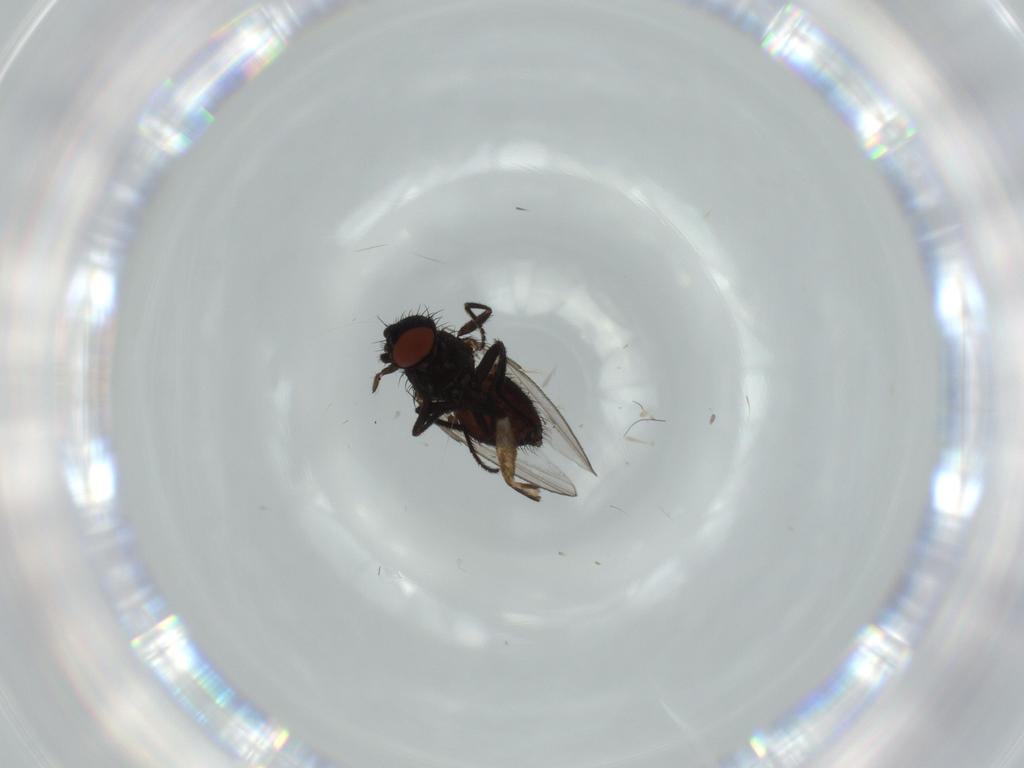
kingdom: Animalia
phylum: Arthropoda
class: Insecta
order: Diptera
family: Milichiidae
